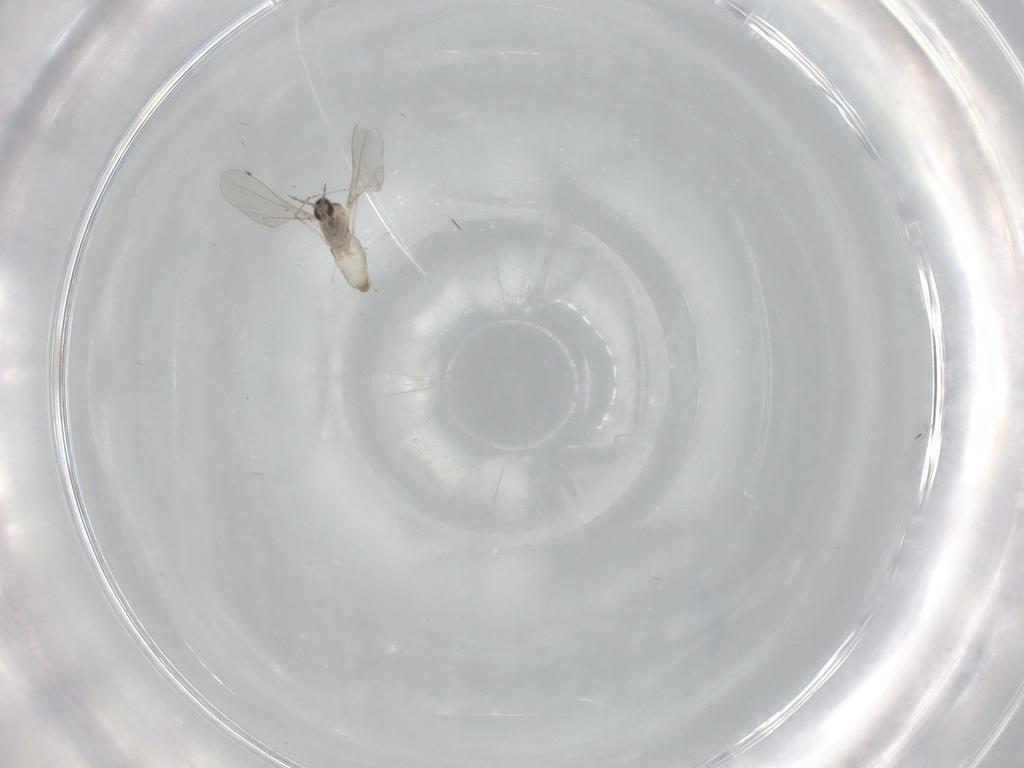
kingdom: Animalia
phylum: Arthropoda
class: Insecta
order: Diptera
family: Cecidomyiidae
